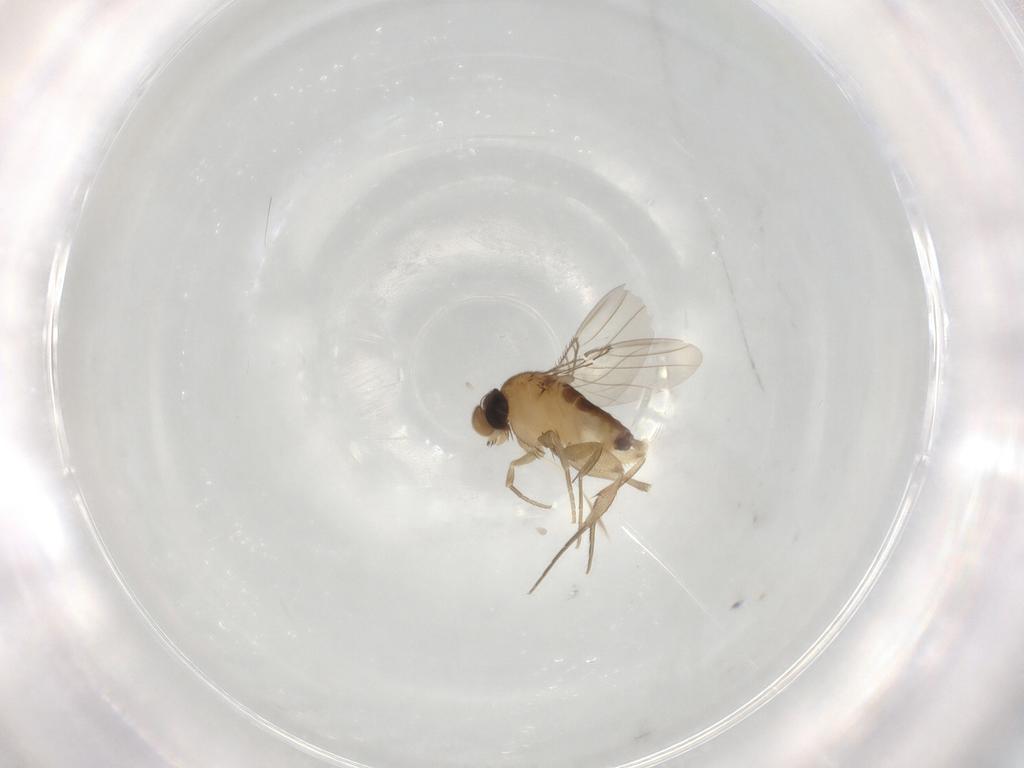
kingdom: Animalia
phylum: Arthropoda
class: Insecta
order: Diptera
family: Phoridae
